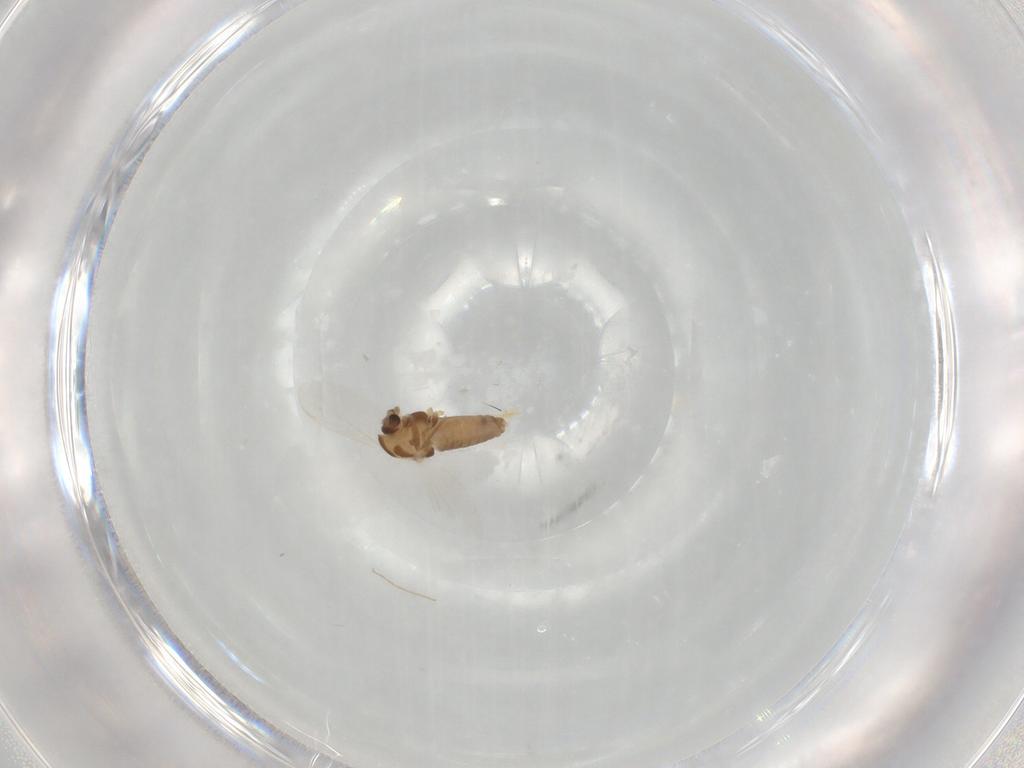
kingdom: Animalia
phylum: Arthropoda
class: Insecta
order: Diptera
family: Chironomidae
